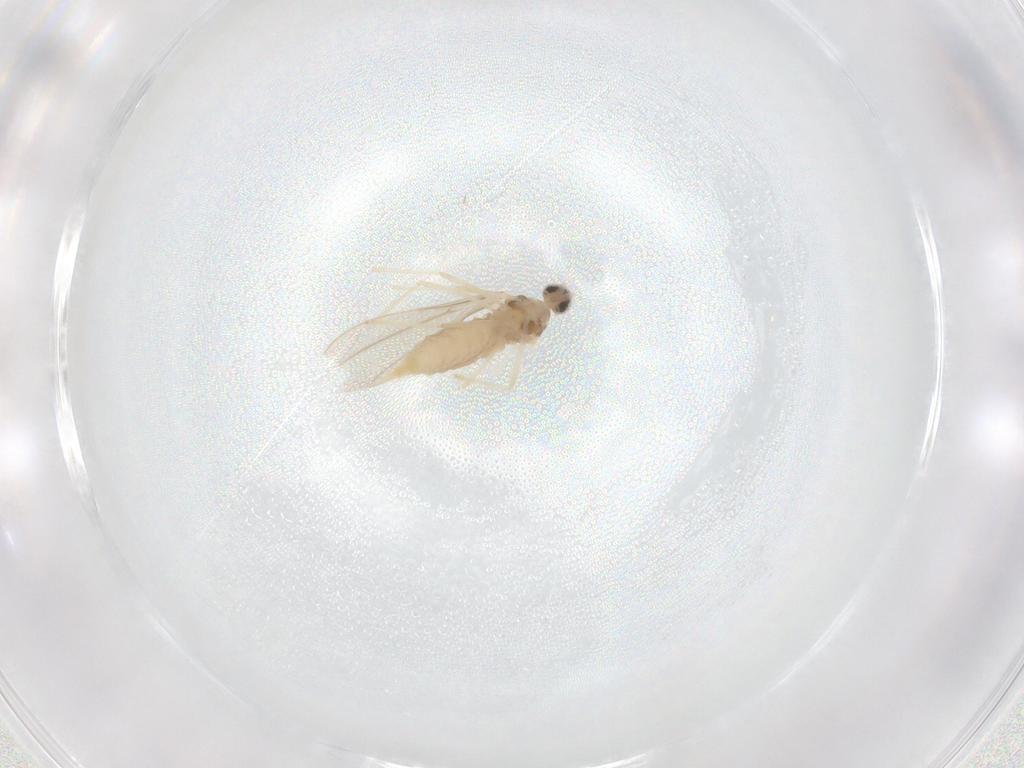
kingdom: Animalia
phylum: Arthropoda
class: Insecta
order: Diptera
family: Cecidomyiidae
